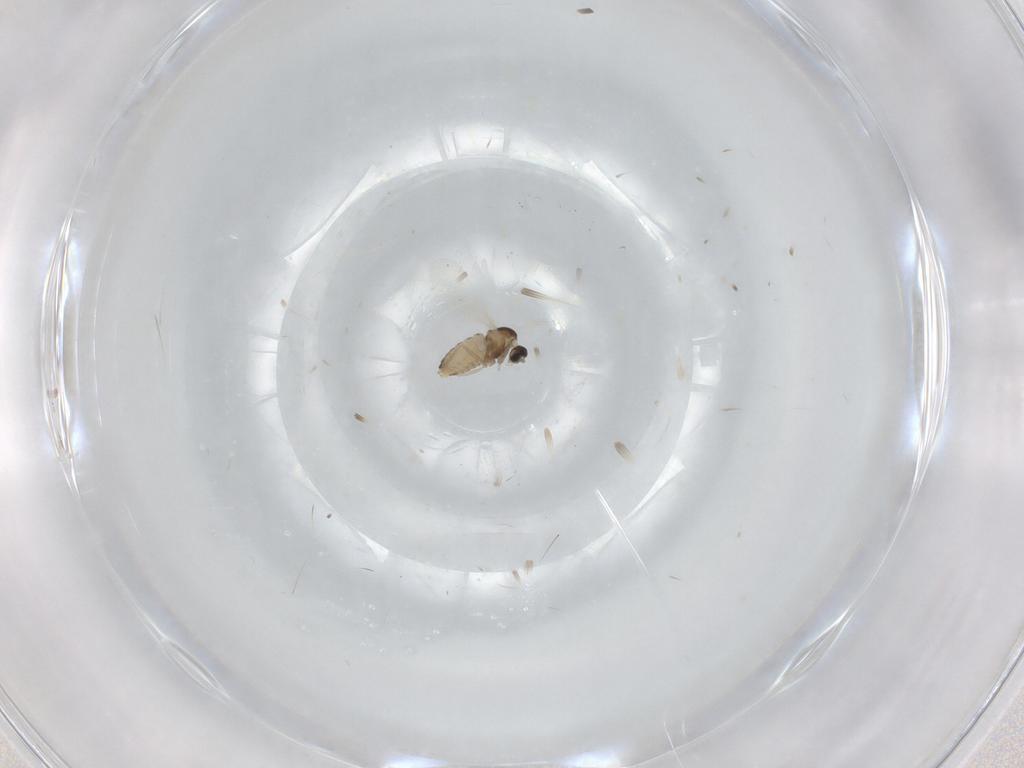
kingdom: Animalia
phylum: Arthropoda
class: Insecta
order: Diptera
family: Cecidomyiidae
